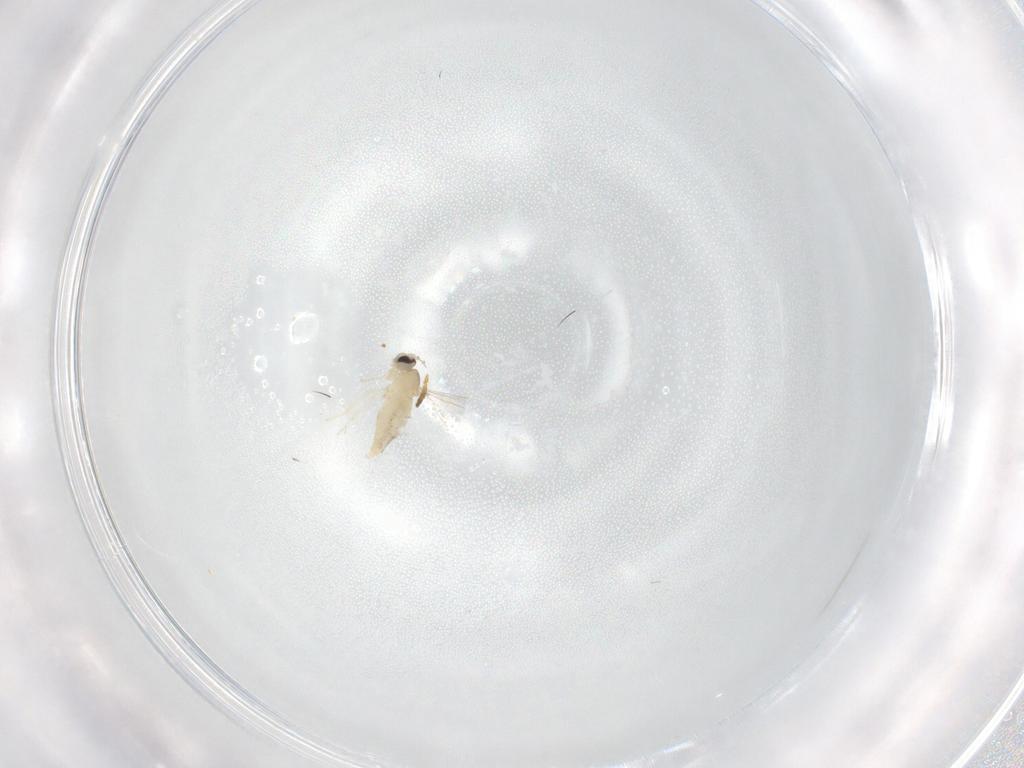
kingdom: Animalia
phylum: Arthropoda
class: Insecta
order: Diptera
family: Cecidomyiidae
